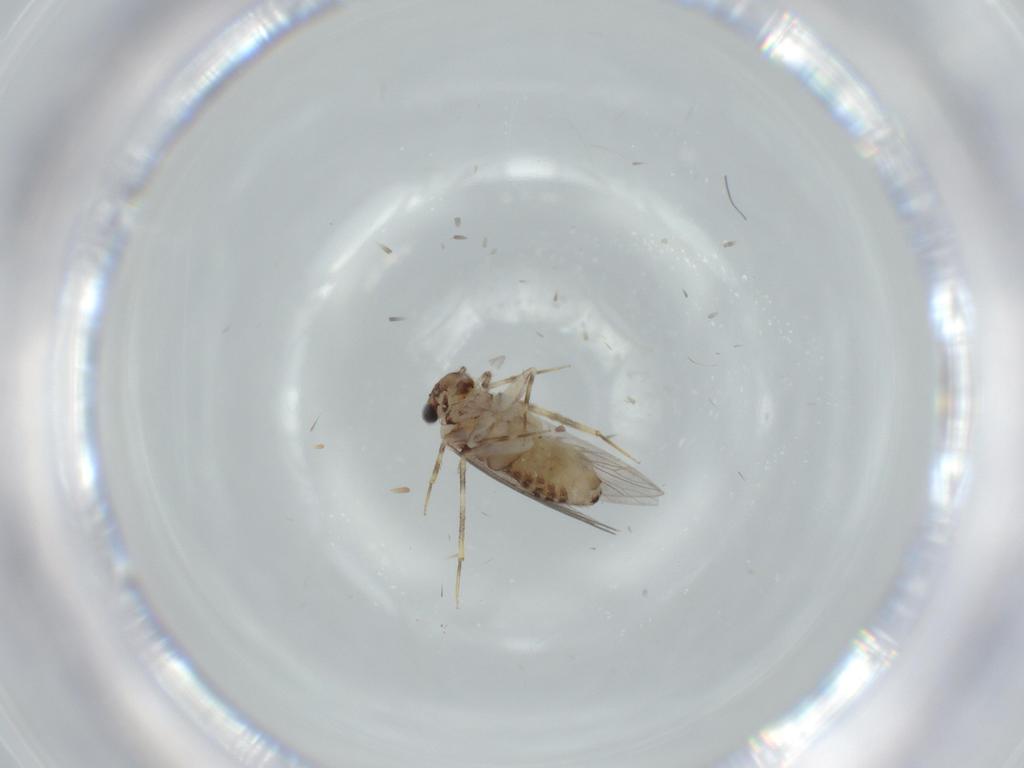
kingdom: Animalia
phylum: Arthropoda
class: Insecta
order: Psocodea
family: Lepidopsocidae
